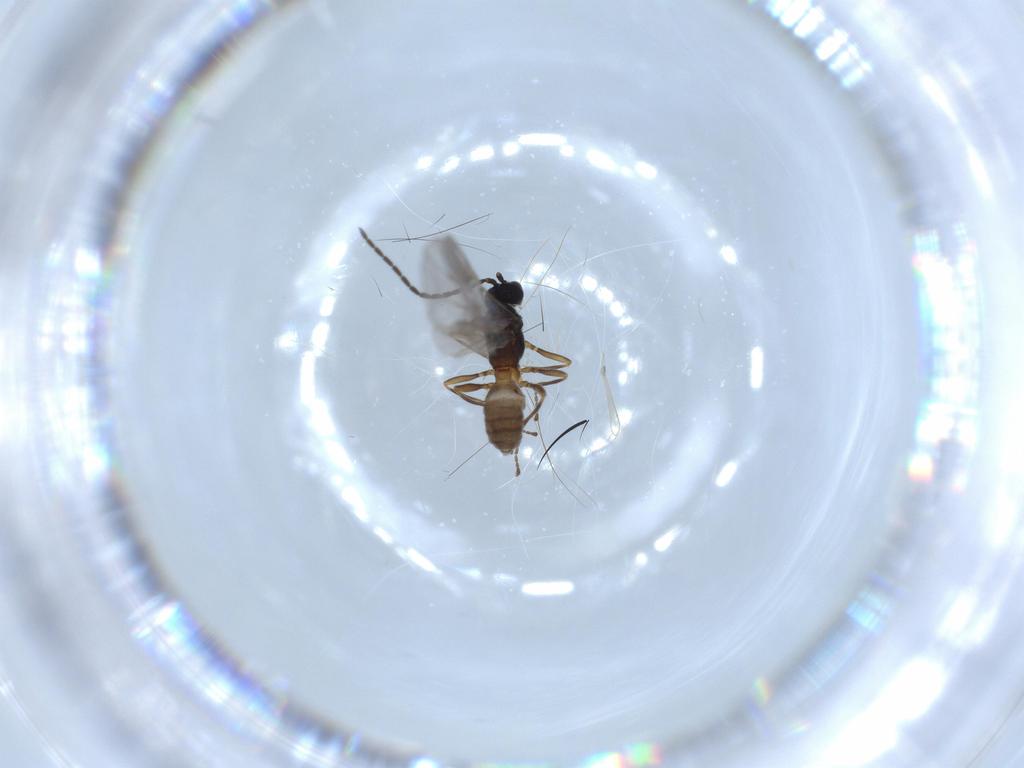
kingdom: Animalia
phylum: Arthropoda
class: Insecta
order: Hymenoptera
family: Braconidae
